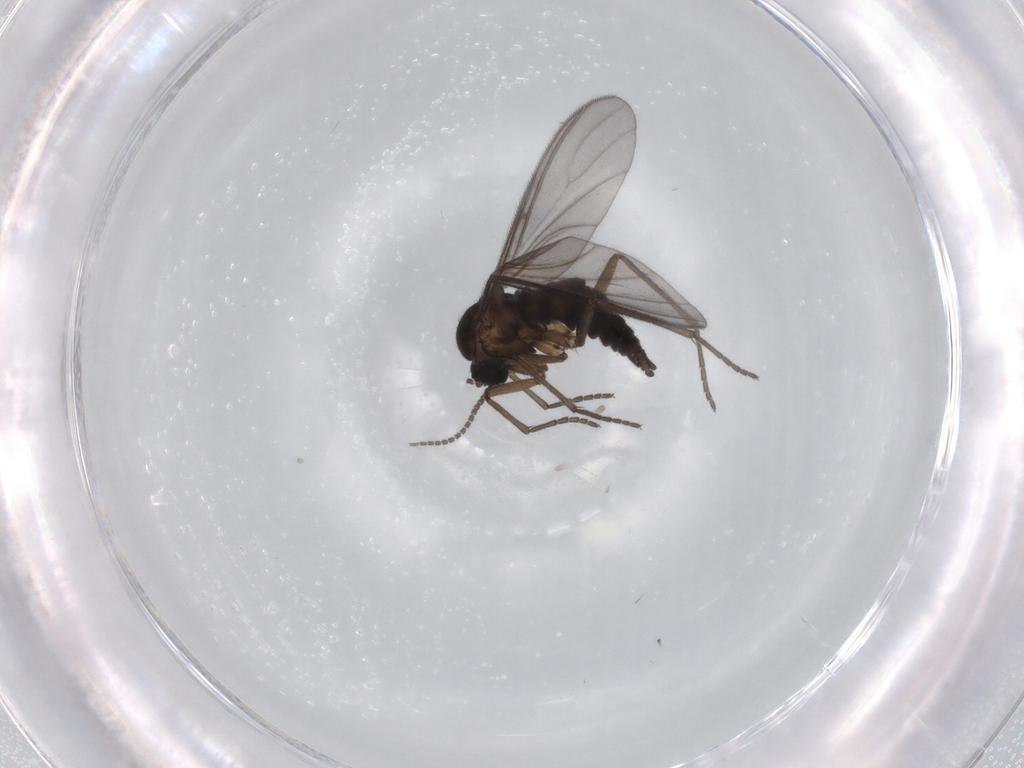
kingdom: Animalia
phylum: Arthropoda
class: Insecta
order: Diptera
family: Sciaridae
